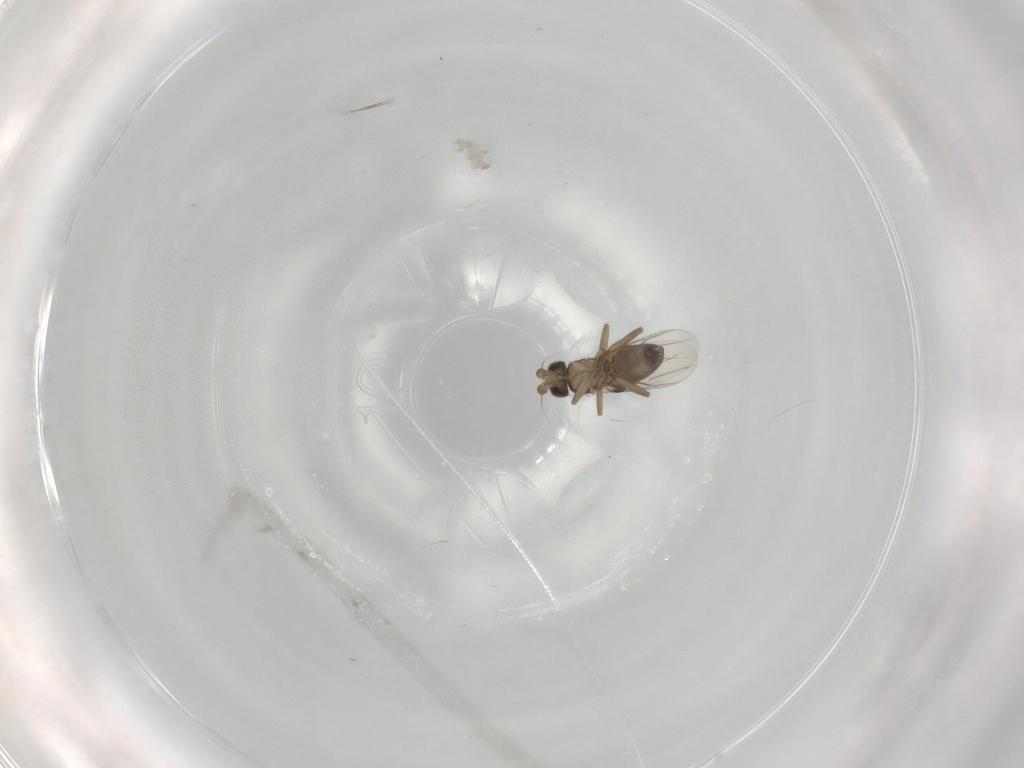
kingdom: Animalia
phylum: Arthropoda
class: Insecta
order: Diptera
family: Phoridae
